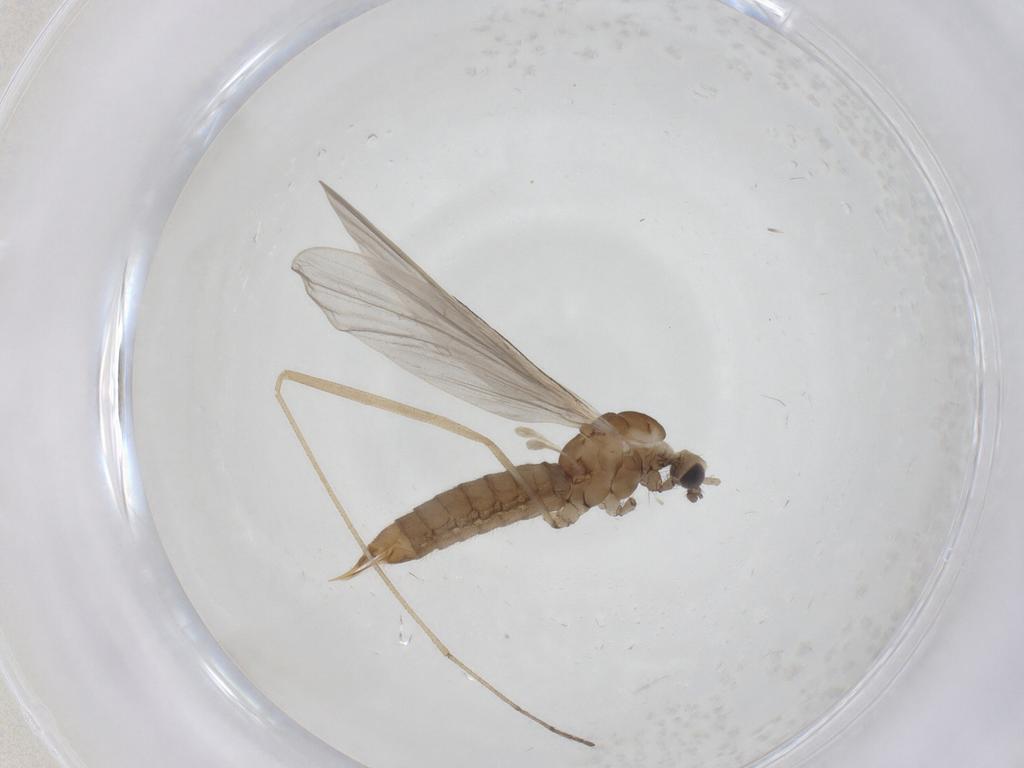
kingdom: Animalia
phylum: Arthropoda
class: Insecta
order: Diptera
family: Limoniidae
